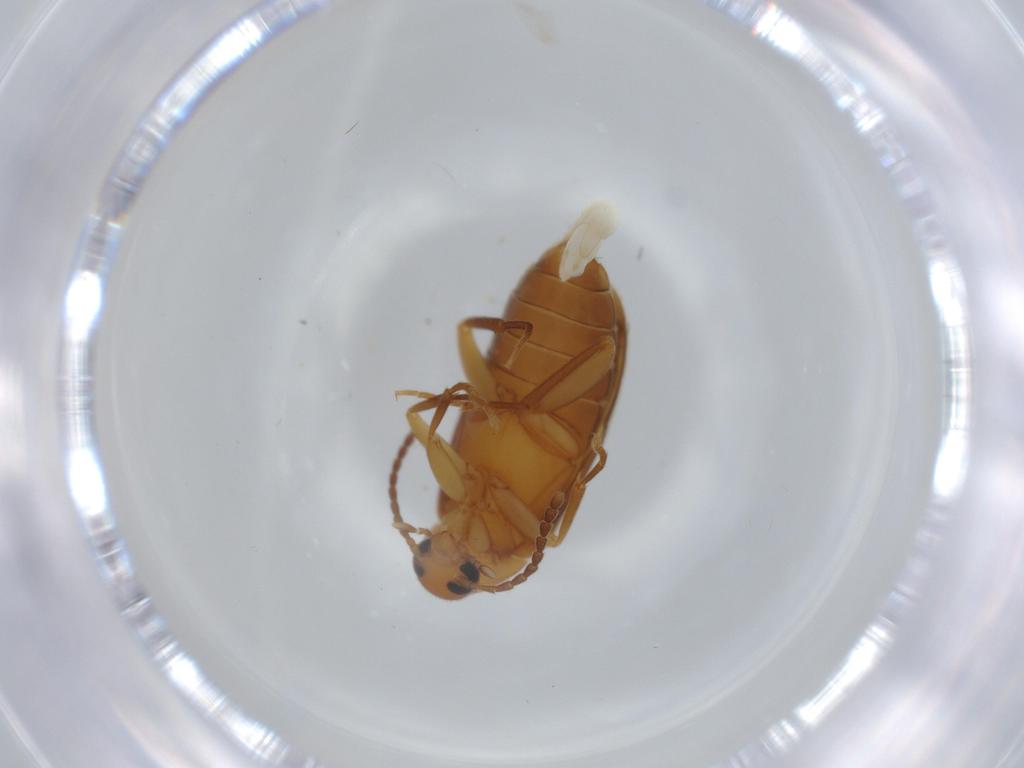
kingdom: Animalia
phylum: Arthropoda
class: Insecta
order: Coleoptera
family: Scraptiidae
